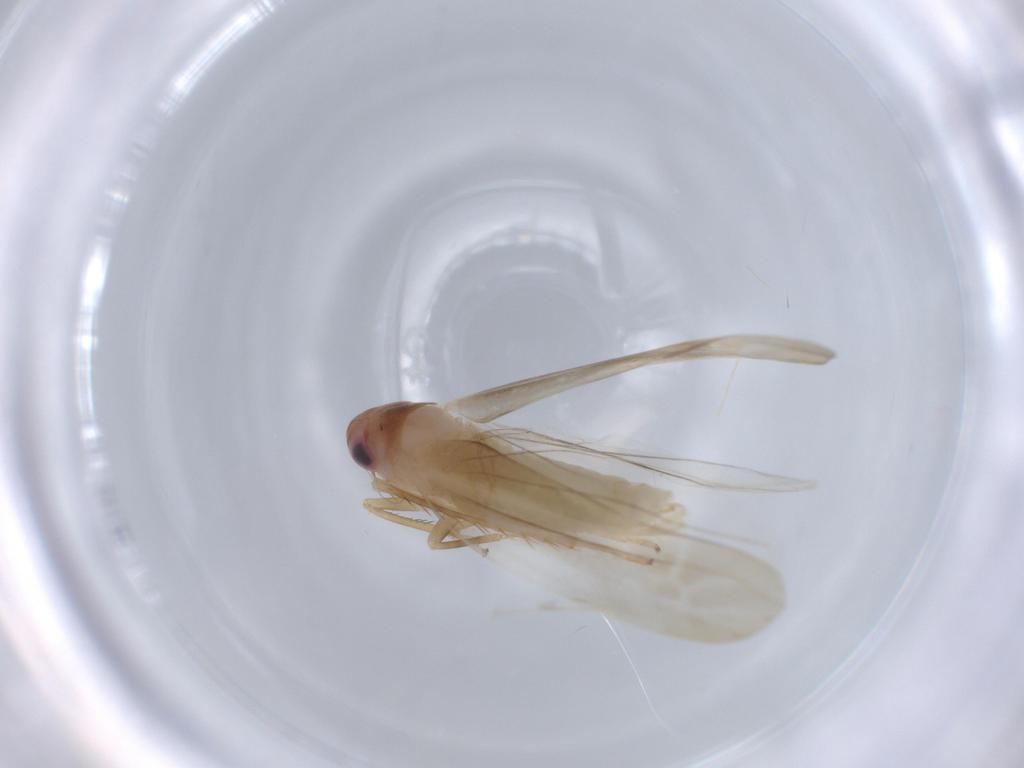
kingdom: Animalia
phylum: Arthropoda
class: Insecta
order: Hemiptera
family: Cicadellidae
